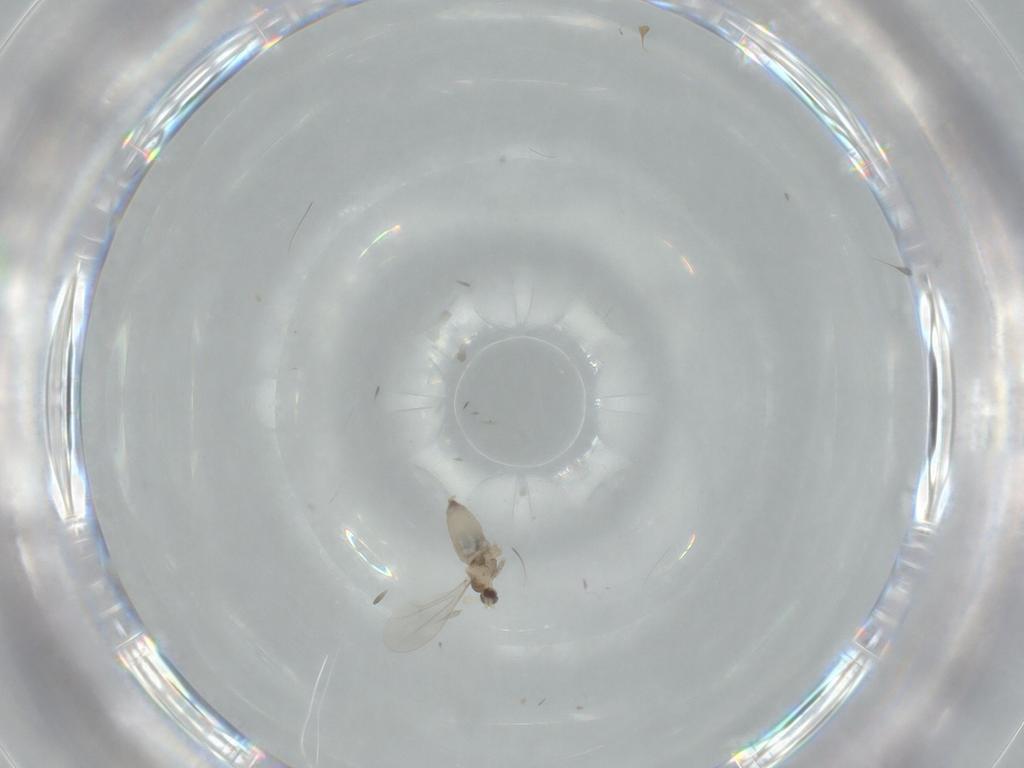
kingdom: Animalia
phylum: Arthropoda
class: Insecta
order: Diptera
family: Cecidomyiidae
